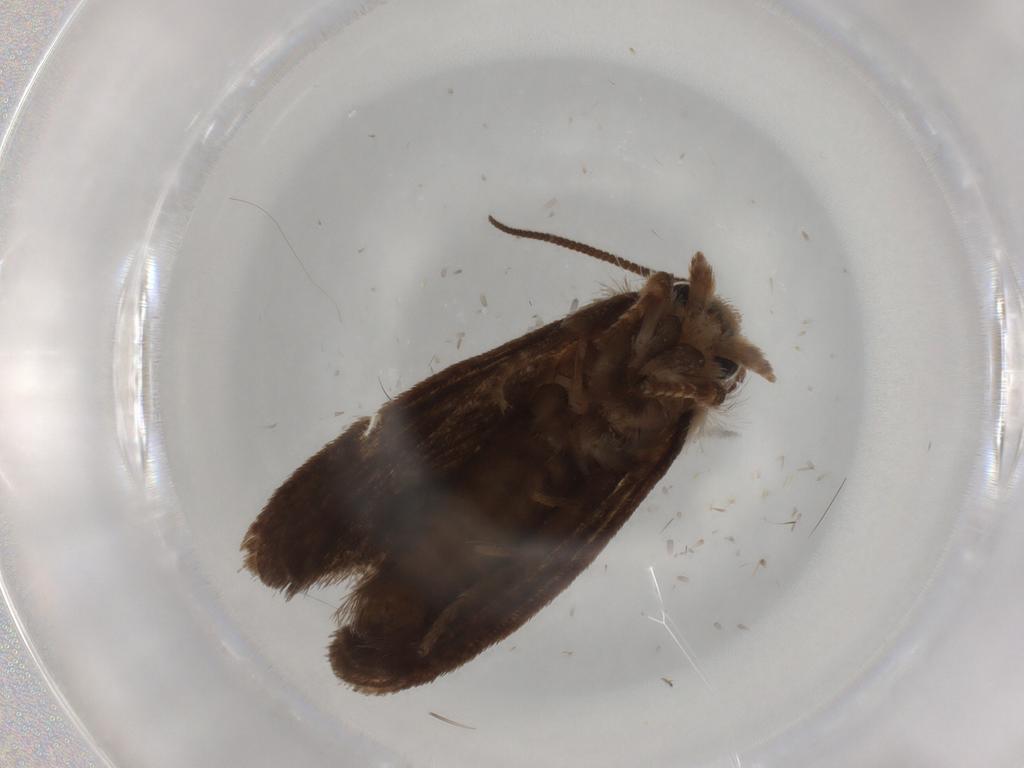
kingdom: Animalia
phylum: Arthropoda
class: Insecta
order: Lepidoptera
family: Tineidae
